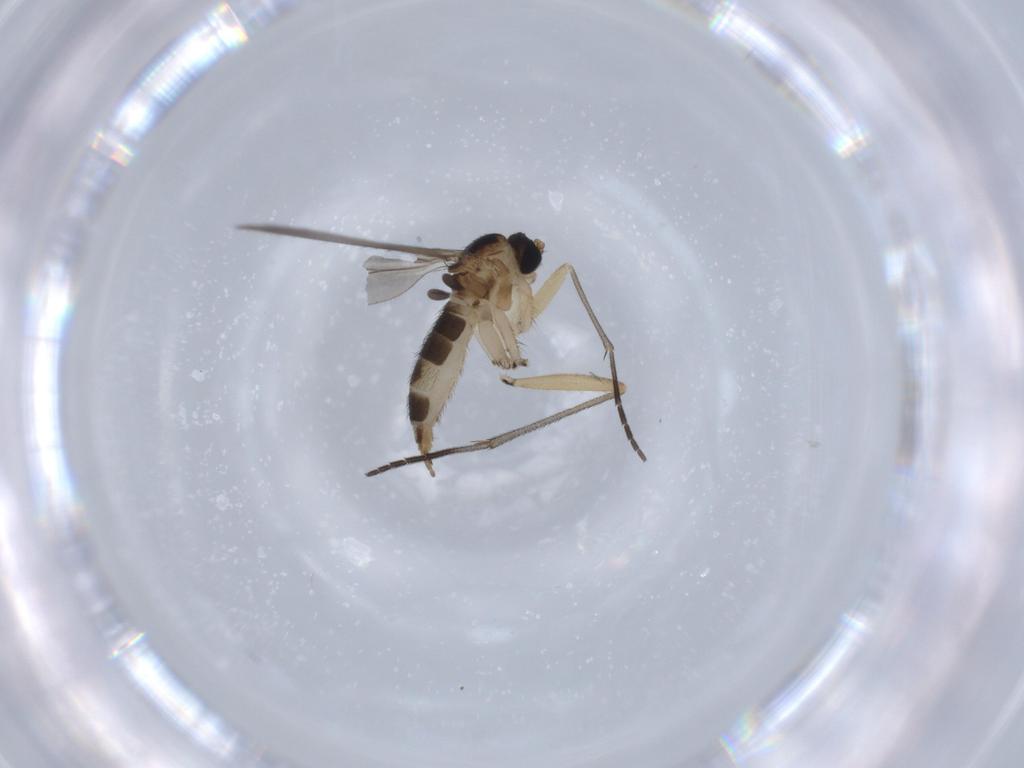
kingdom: Animalia
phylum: Arthropoda
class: Insecta
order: Diptera
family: Sciaridae
